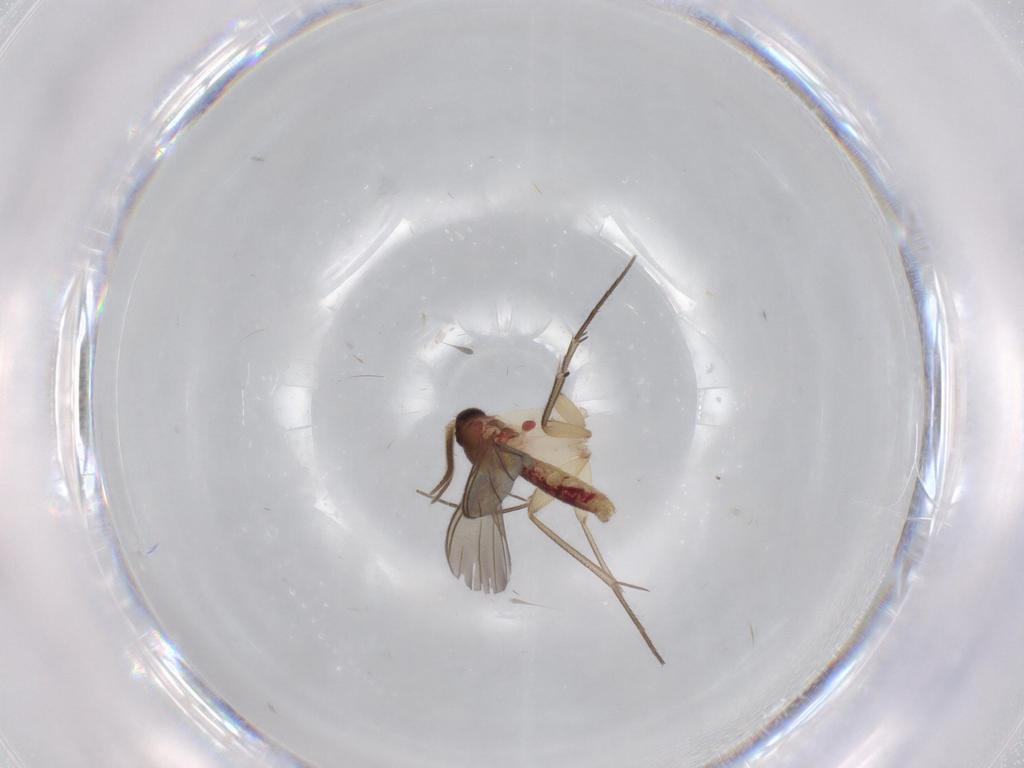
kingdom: Animalia
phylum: Arthropoda
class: Insecta
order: Diptera
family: Mycetophilidae
